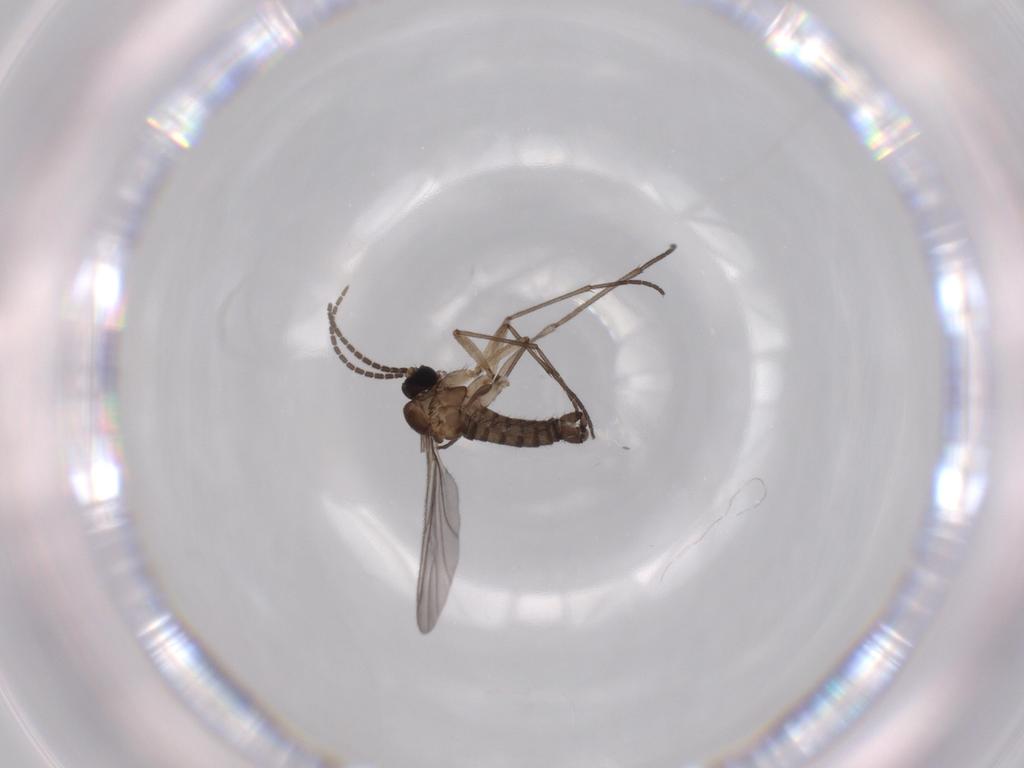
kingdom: Animalia
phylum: Arthropoda
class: Insecta
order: Diptera
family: Sciaridae
